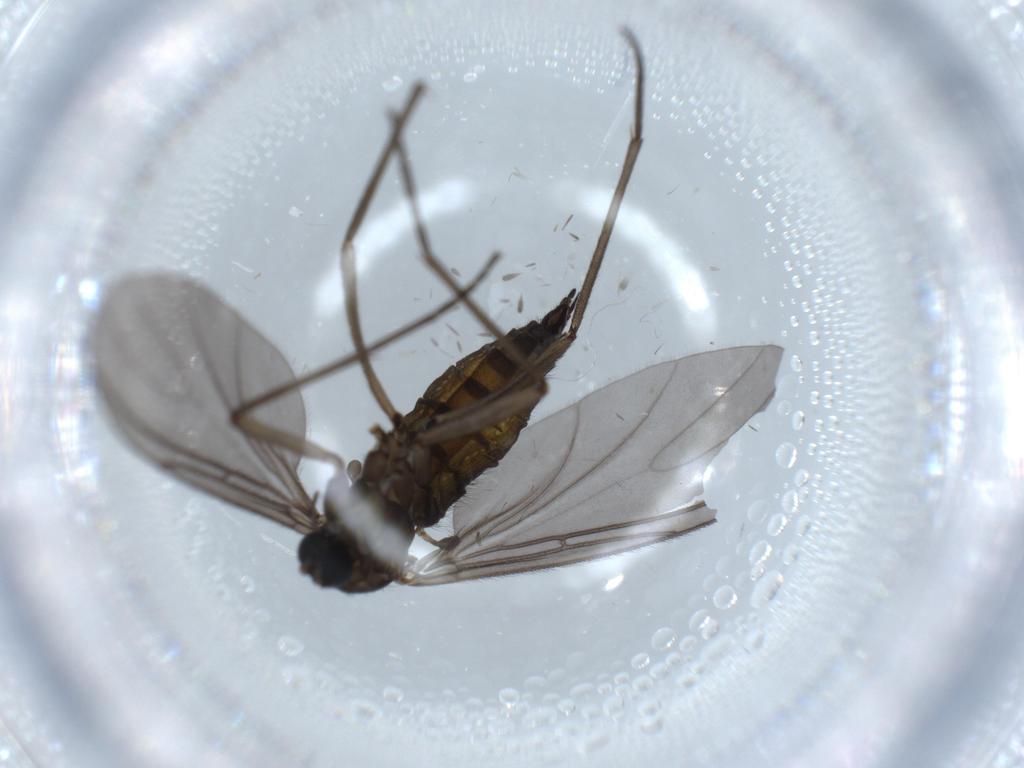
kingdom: Animalia
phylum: Arthropoda
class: Insecta
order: Diptera
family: Sciaridae
